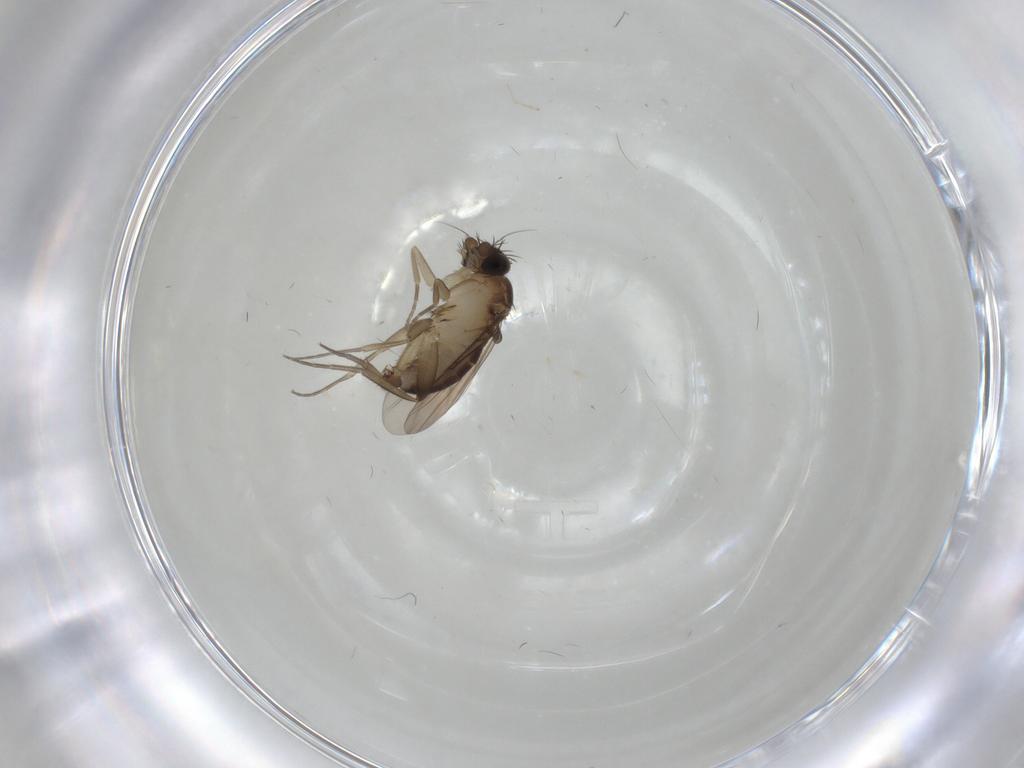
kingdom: Animalia
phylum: Arthropoda
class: Insecta
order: Diptera
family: Phoridae
